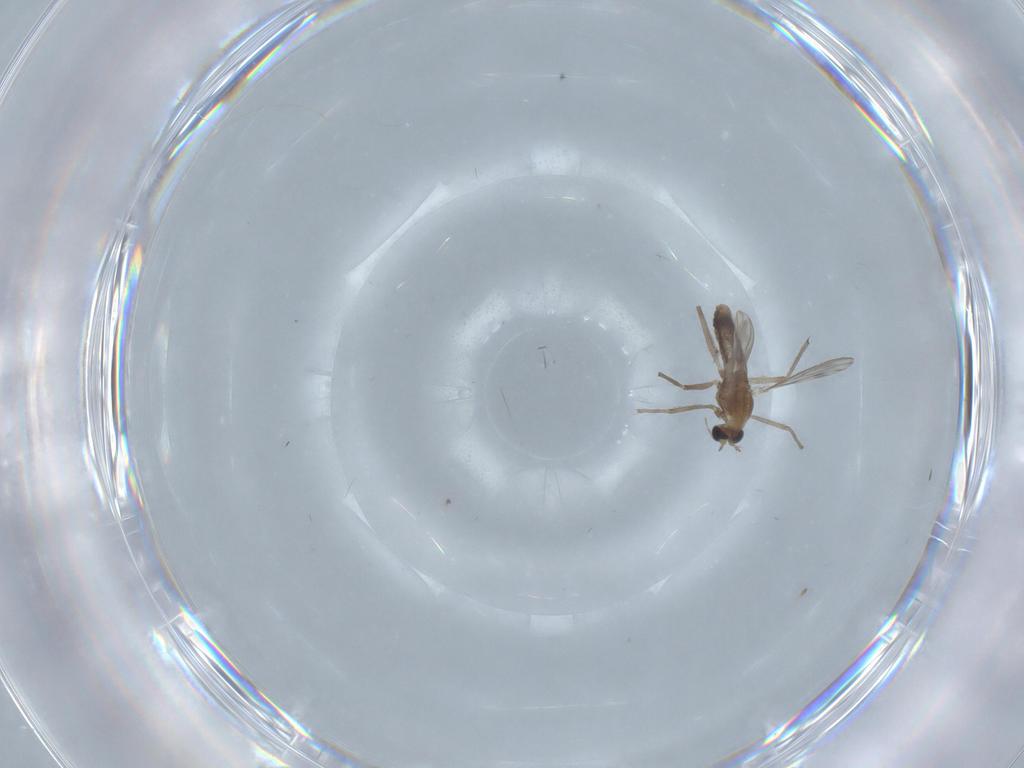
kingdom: Animalia
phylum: Arthropoda
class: Insecta
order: Diptera
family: Chironomidae
